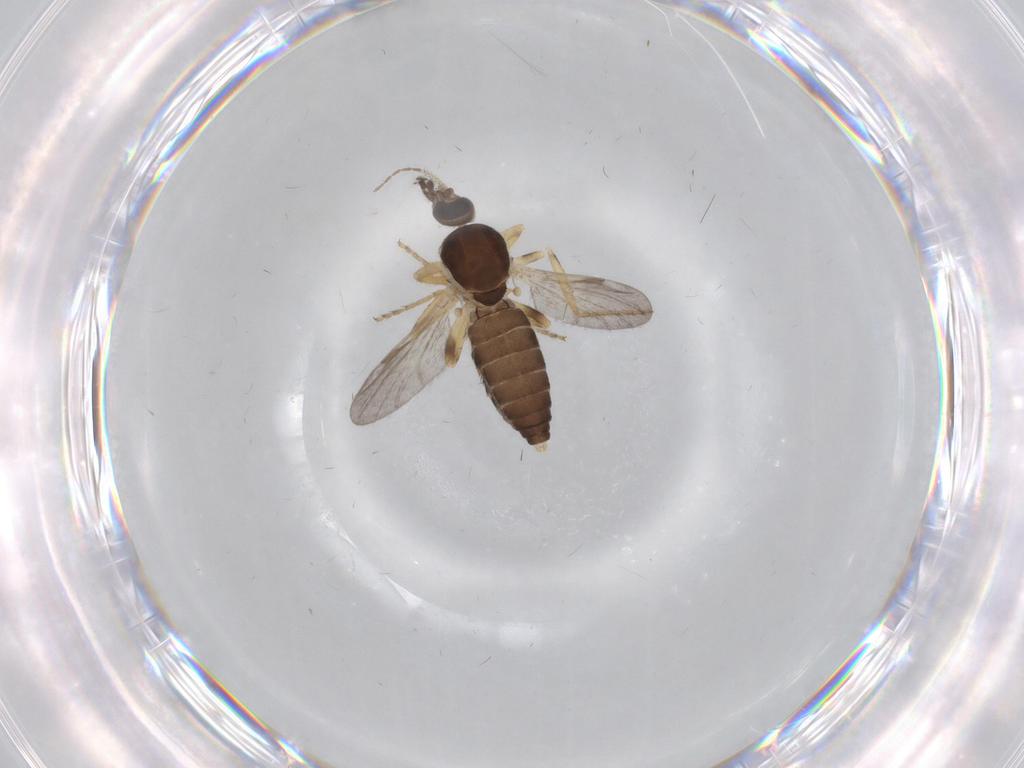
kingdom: Animalia
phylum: Arthropoda
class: Insecta
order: Diptera
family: Ceratopogonidae
